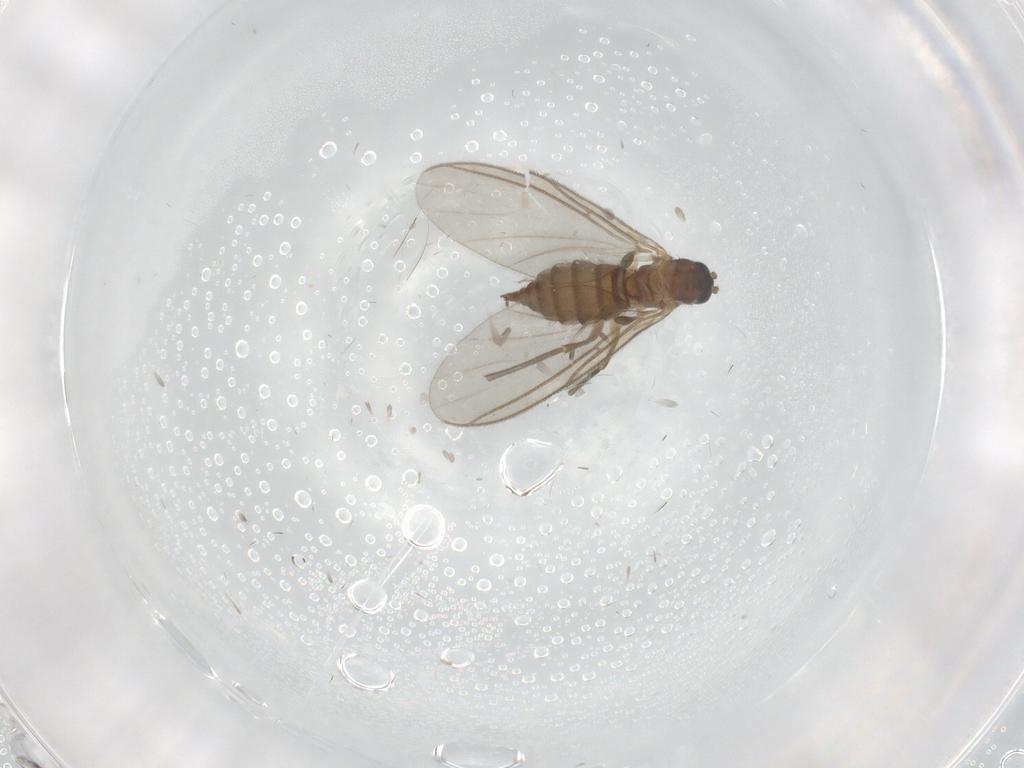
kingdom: Animalia
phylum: Arthropoda
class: Insecta
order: Diptera
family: Sciaridae
